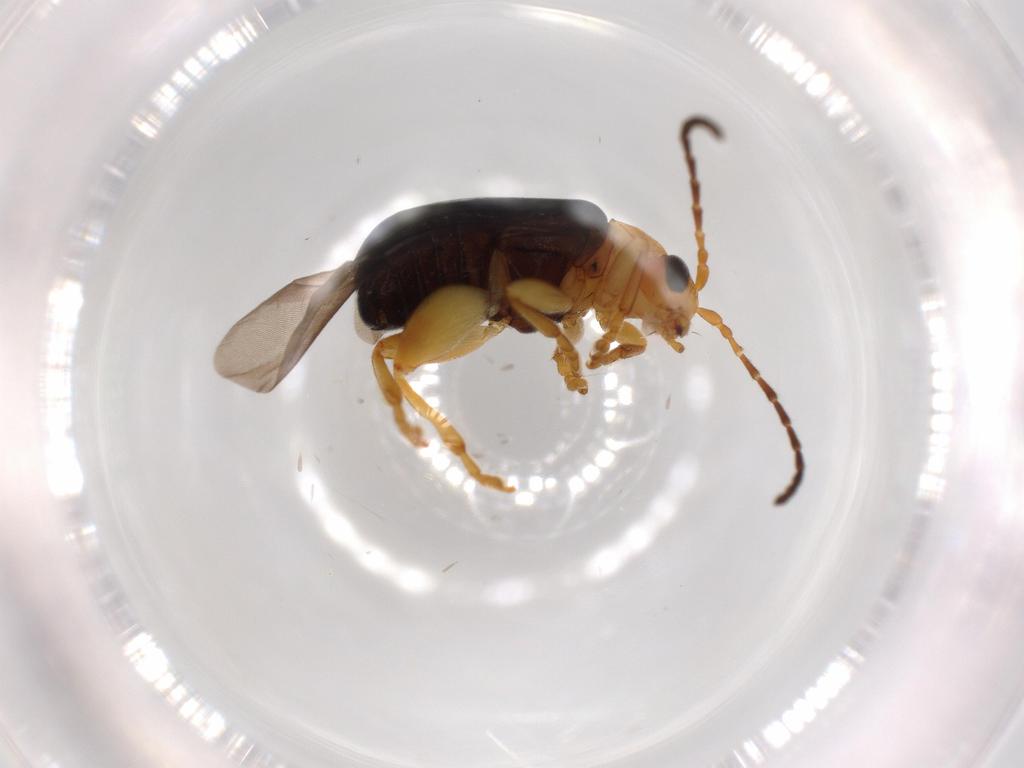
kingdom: Animalia
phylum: Arthropoda
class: Insecta
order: Coleoptera
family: Chrysomelidae
